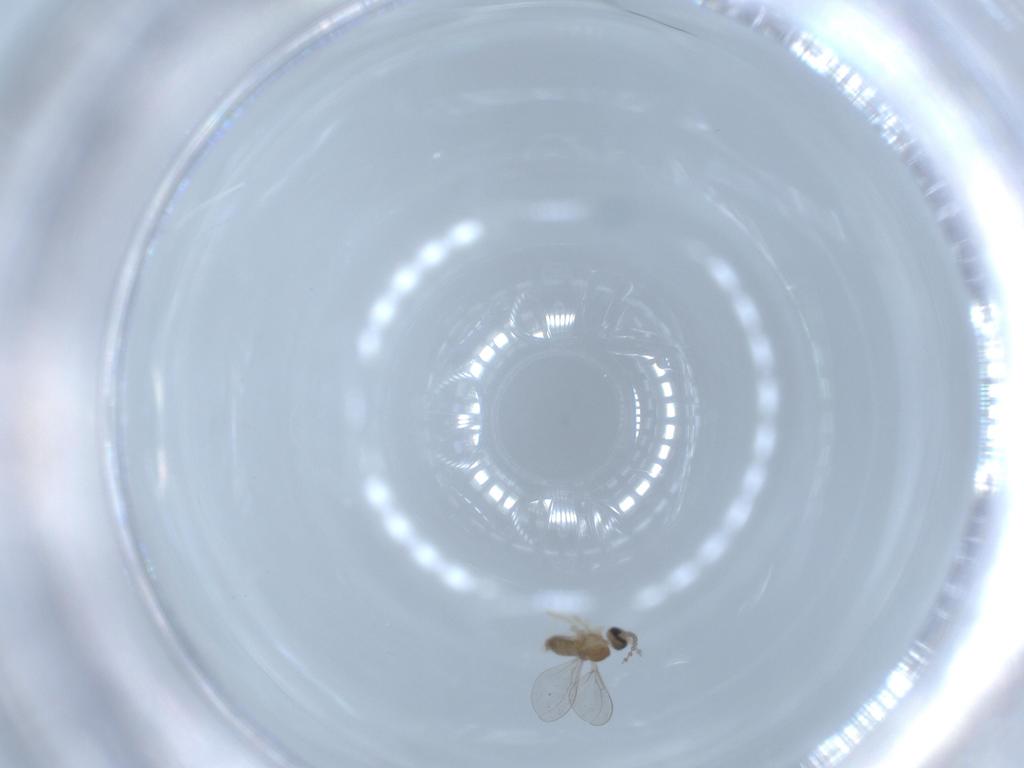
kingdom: Animalia
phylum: Arthropoda
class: Insecta
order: Diptera
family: Cecidomyiidae
